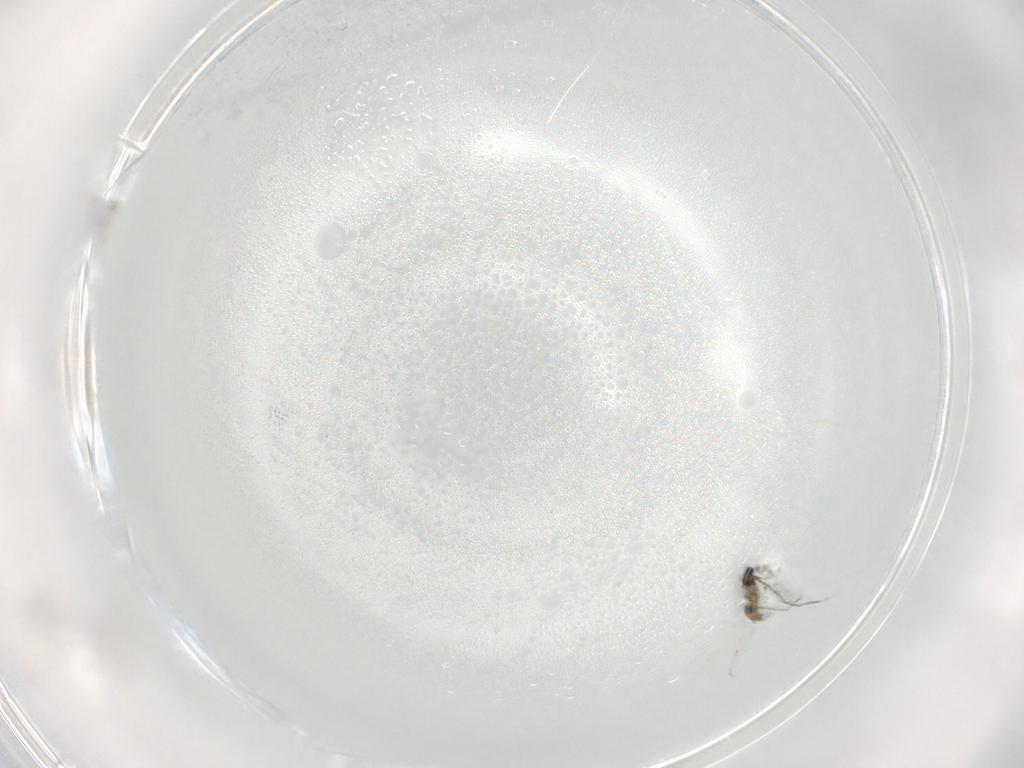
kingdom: Animalia
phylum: Arthropoda
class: Insecta
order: Diptera
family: Cecidomyiidae
